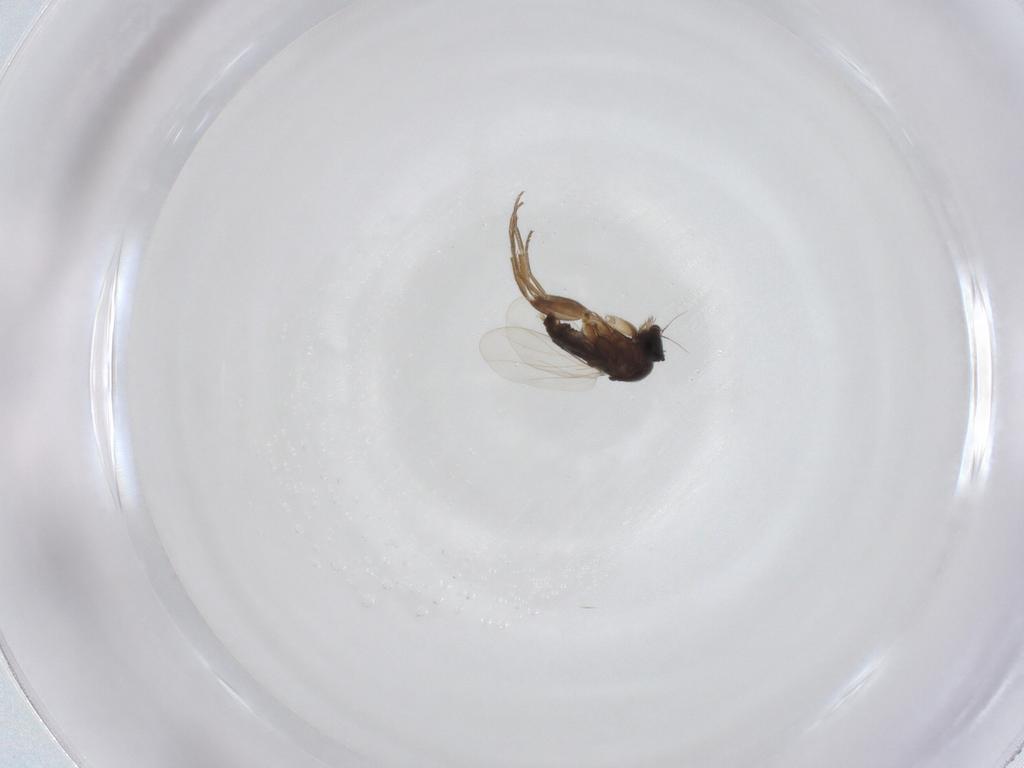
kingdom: Animalia
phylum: Arthropoda
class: Insecta
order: Diptera
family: Phoridae
